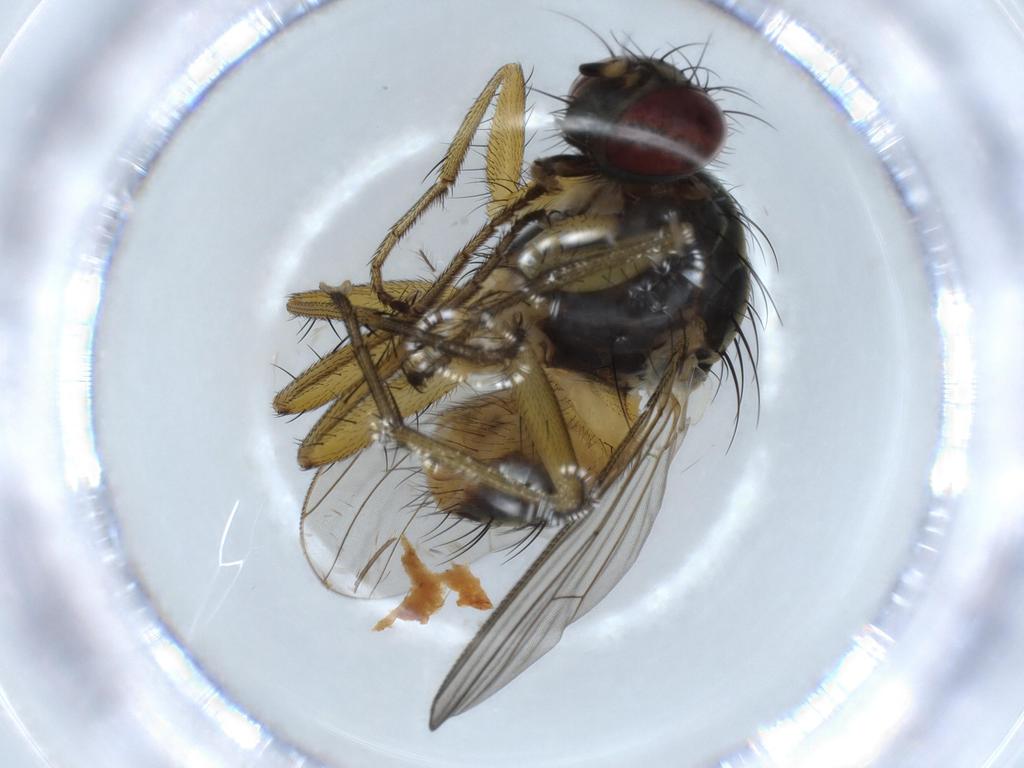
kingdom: Animalia
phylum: Arthropoda
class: Insecta
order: Diptera
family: Muscidae
